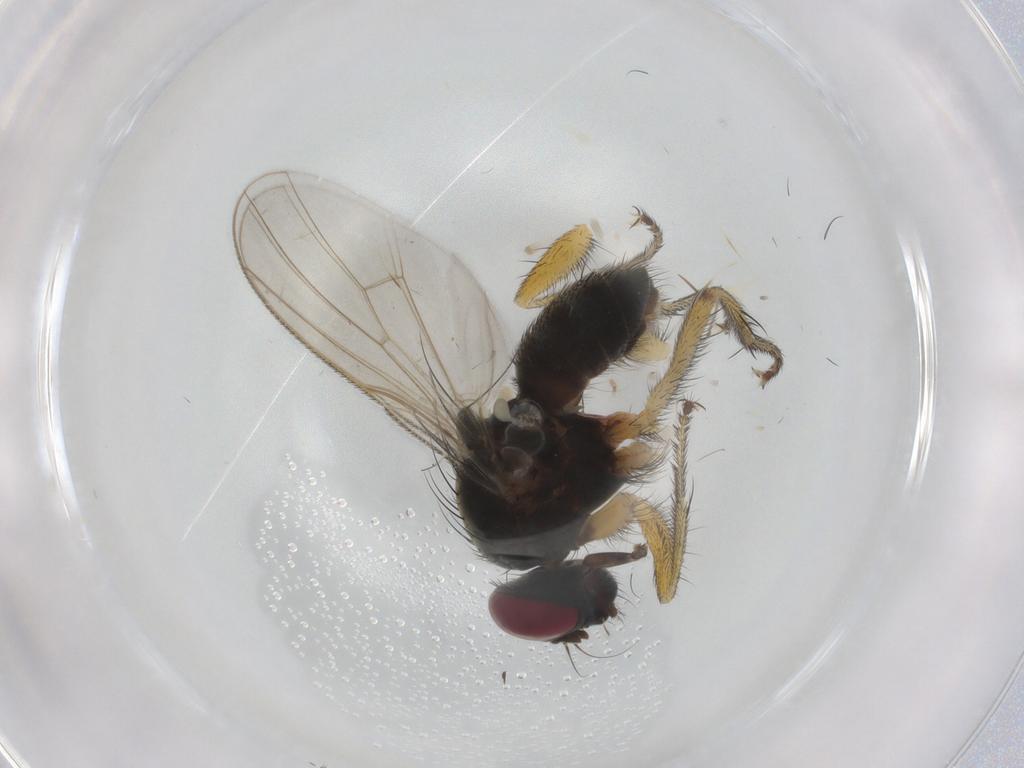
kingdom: Animalia
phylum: Arthropoda
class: Insecta
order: Diptera
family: Muscidae
